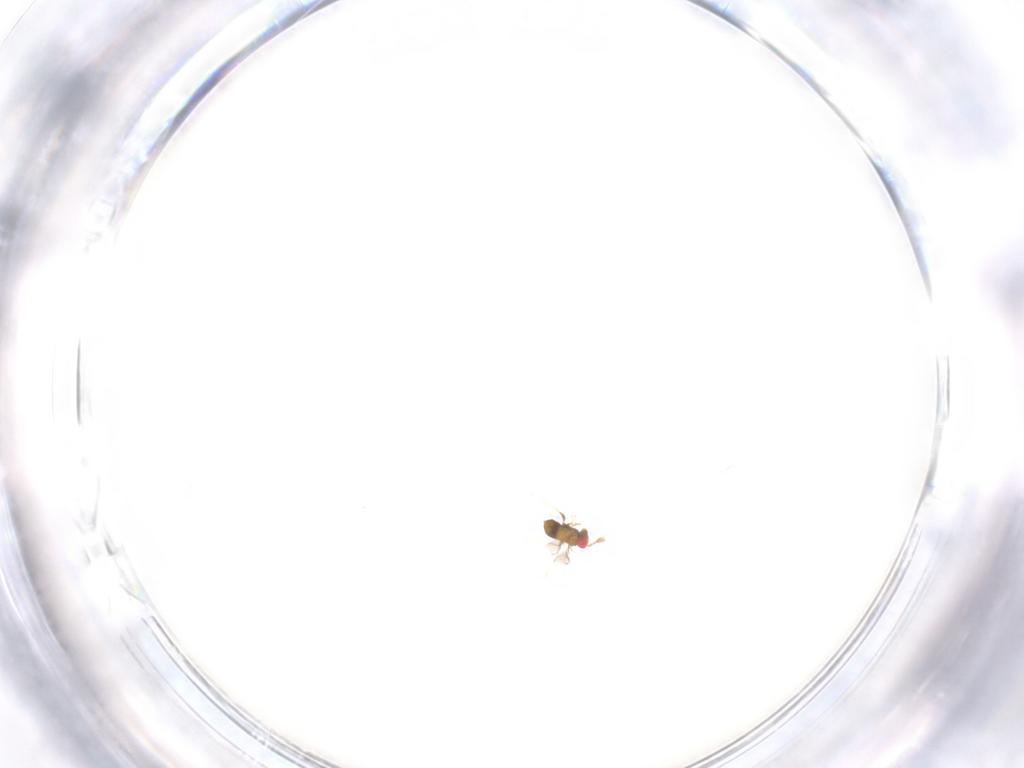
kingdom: Animalia
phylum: Arthropoda
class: Insecta
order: Hymenoptera
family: Trichogrammatidae
